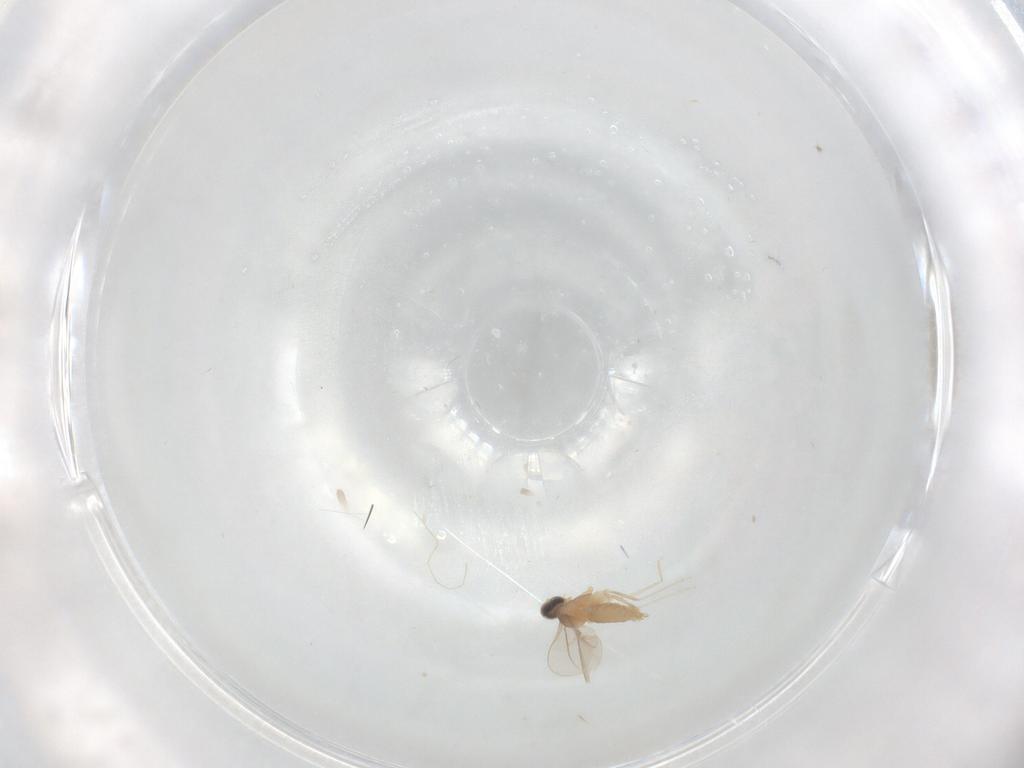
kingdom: Animalia
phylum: Arthropoda
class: Insecta
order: Diptera
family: Cecidomyiidae
